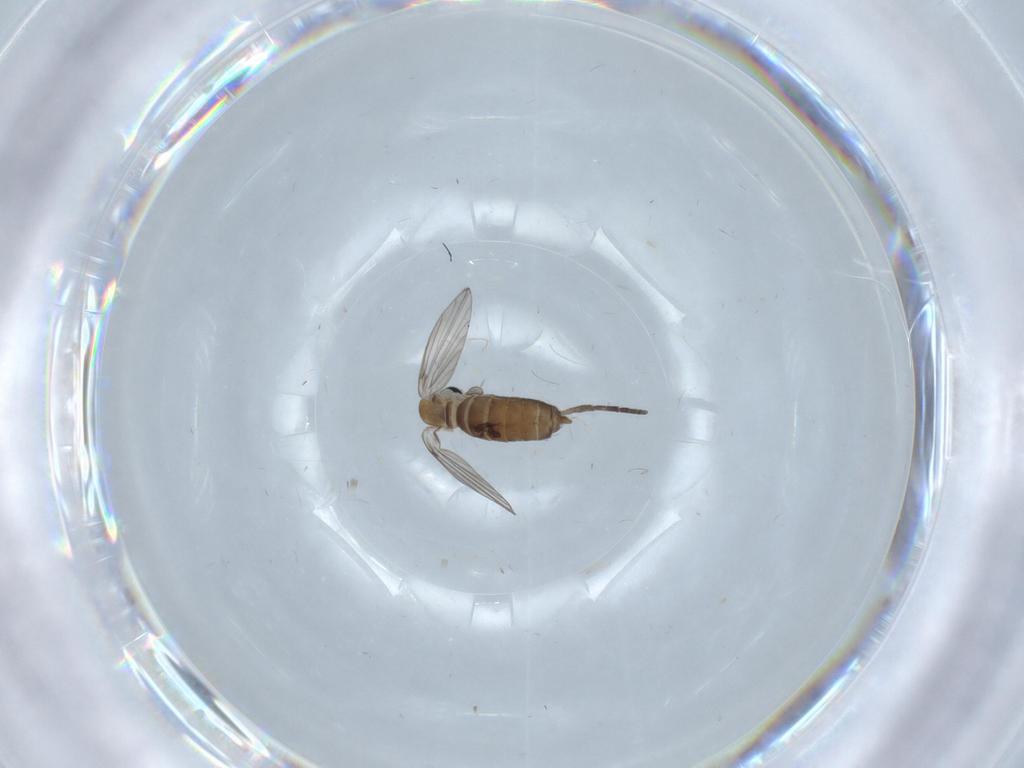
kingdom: Animalia
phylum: Arthropoda
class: Insecta
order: Diptera
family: Psychodidae
